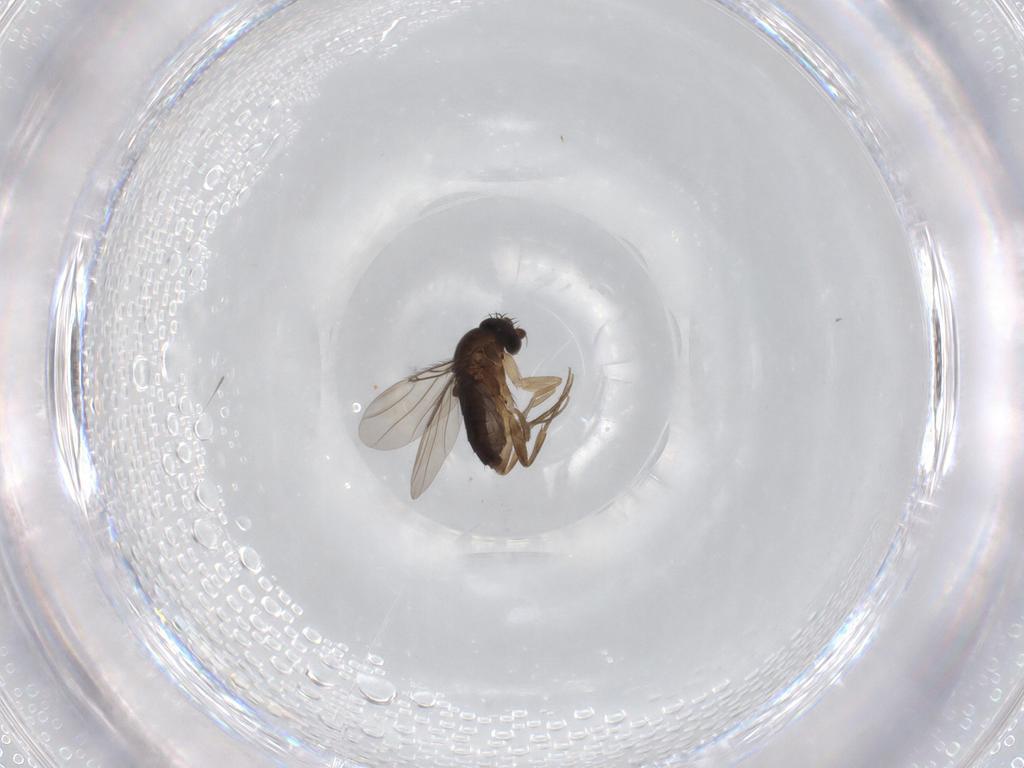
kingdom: Animalia
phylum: Arthropoda
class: Insecta
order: Diptera
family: Phoridae
